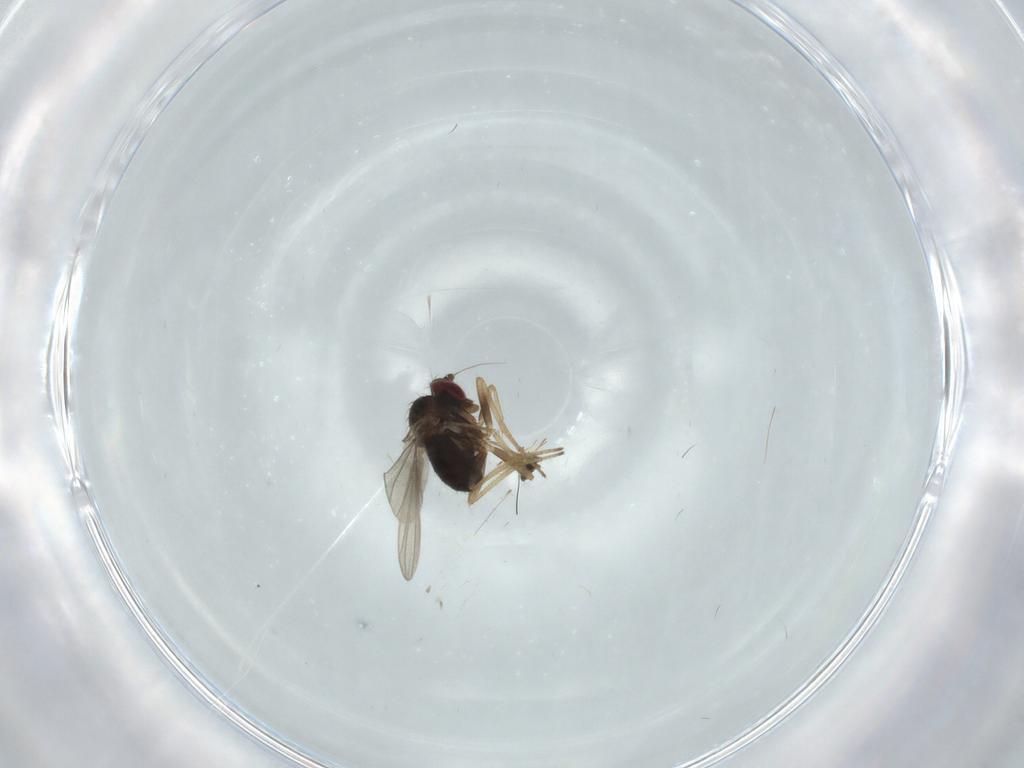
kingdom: Animalia
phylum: Arthropoda
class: Insecta
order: Diptera
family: Dolichopodidae
